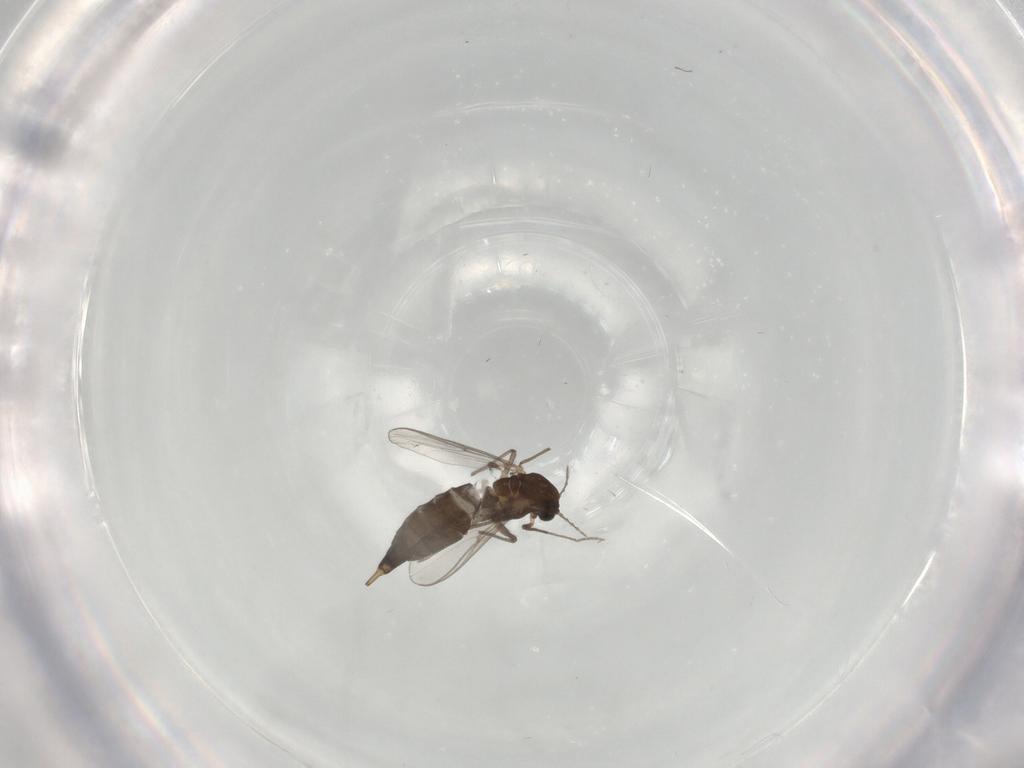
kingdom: Animalia
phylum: Arthropoda
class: Insecta
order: Diptera
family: Chironomidae
